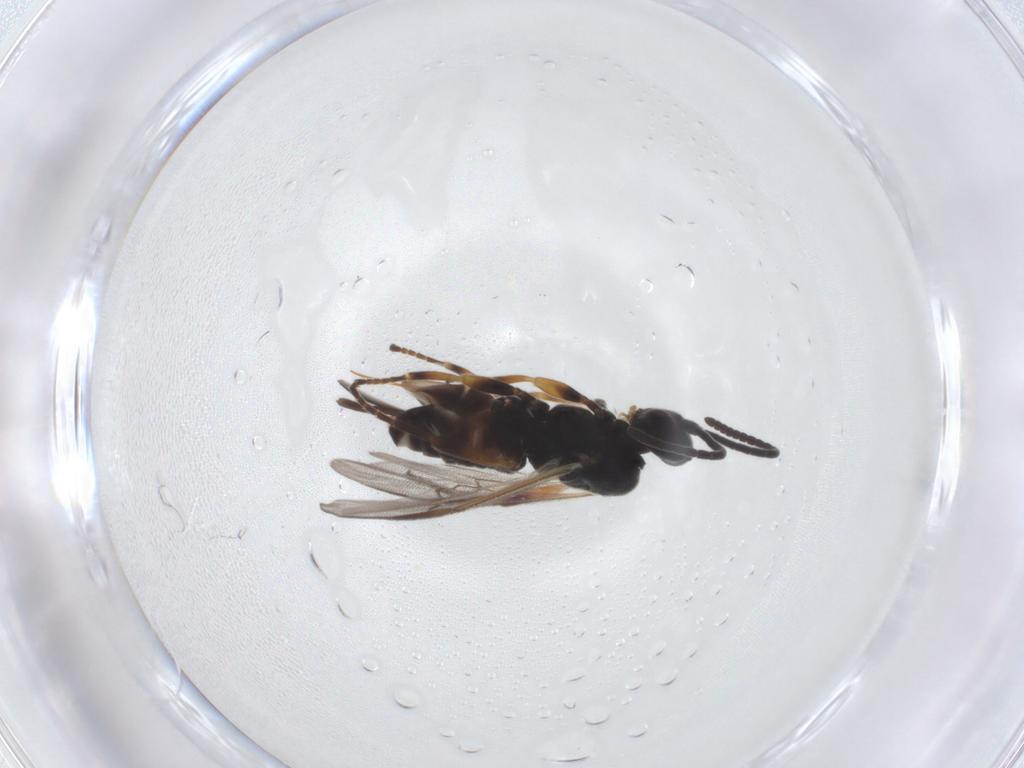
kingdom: Animalia
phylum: Arthropoda
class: Insecta
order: Hymenoptera
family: Braconidae
